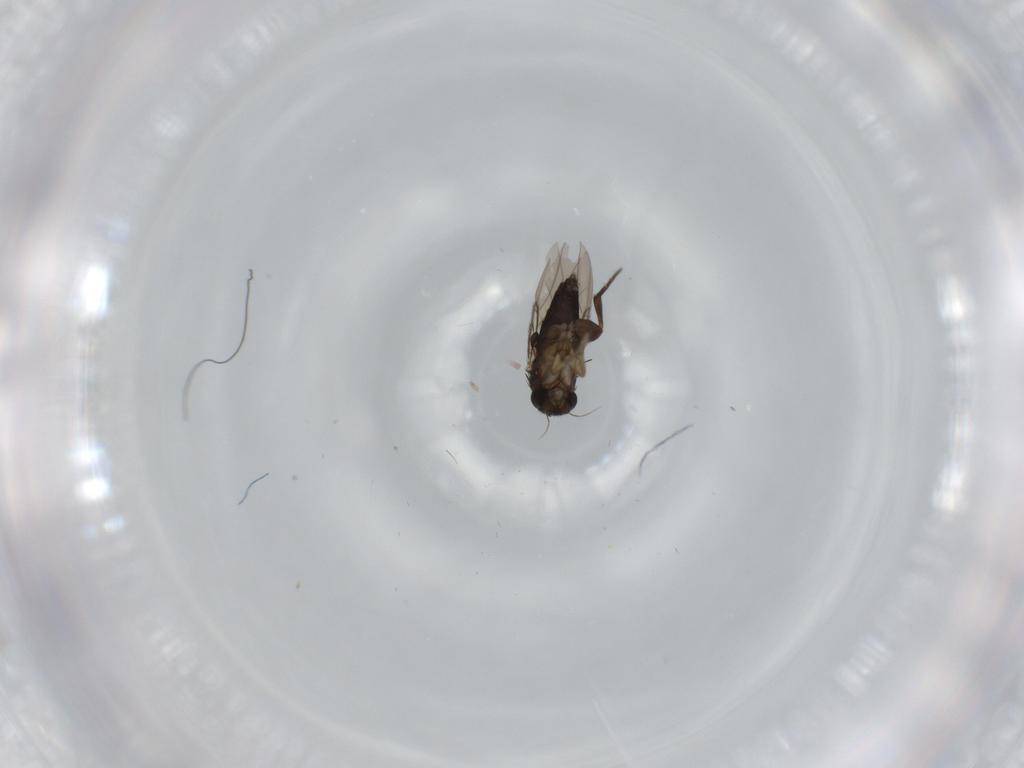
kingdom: Animalia
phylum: Arthropoda
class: Insecta
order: Diptera
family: Phoridae
